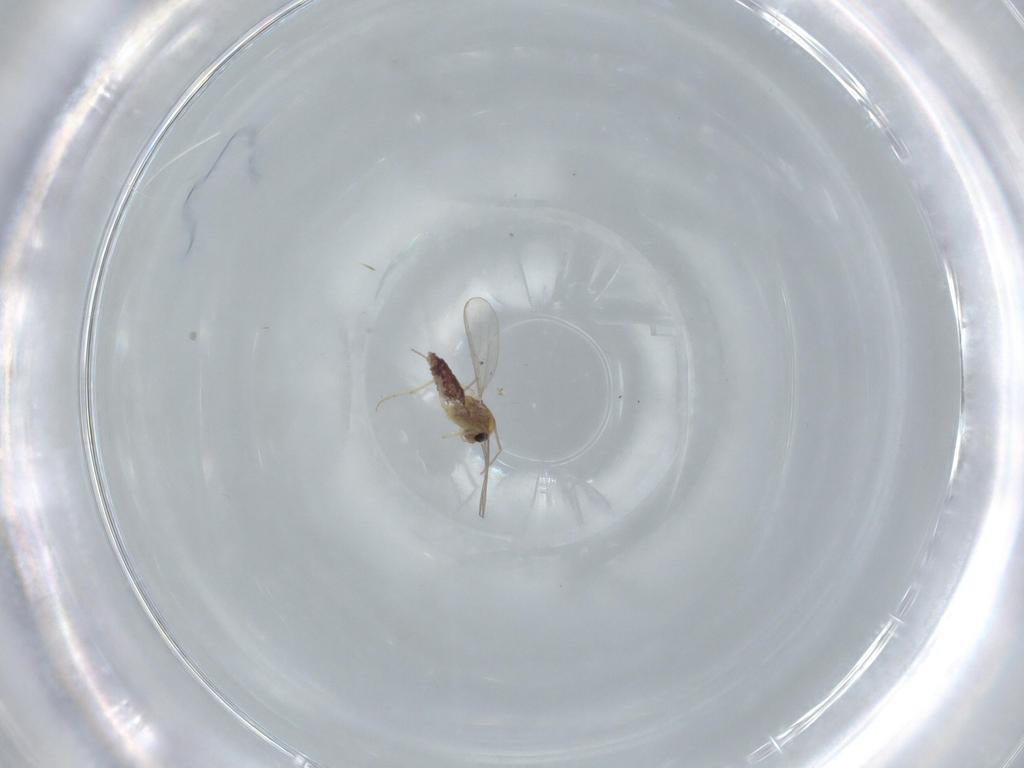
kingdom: Animalia
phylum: Arthropoda
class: Insecta
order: Diptera
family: Chironomidae
